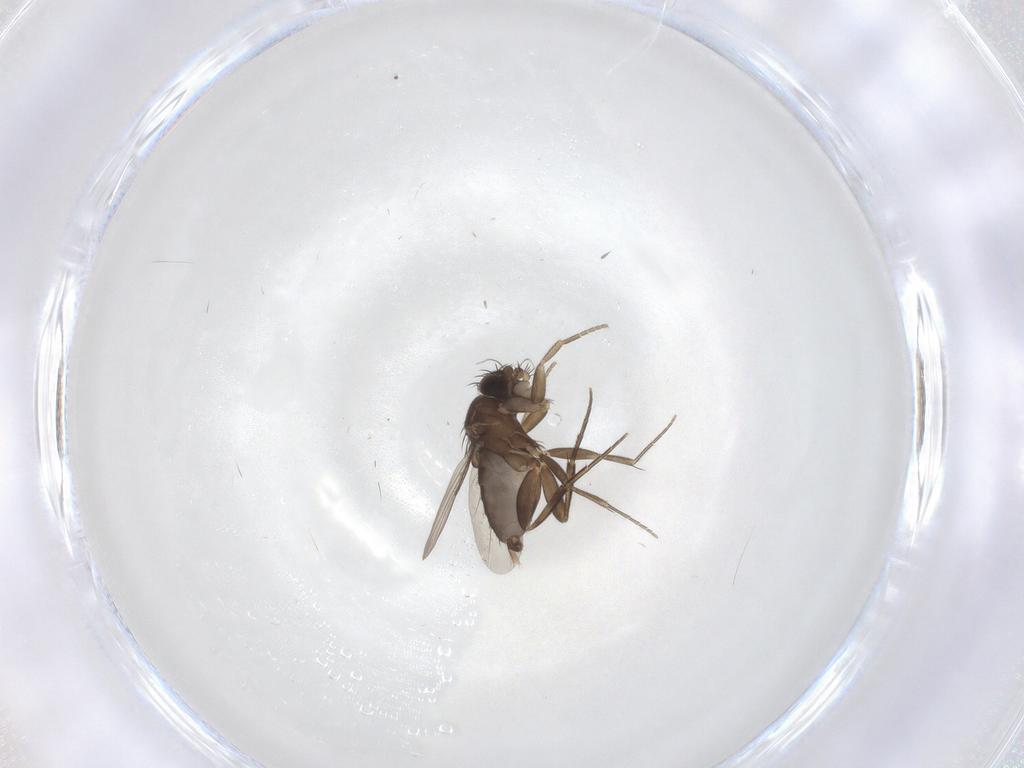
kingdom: Animalia
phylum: Arthropoda
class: Insecta
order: Diptera
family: Phoridae
